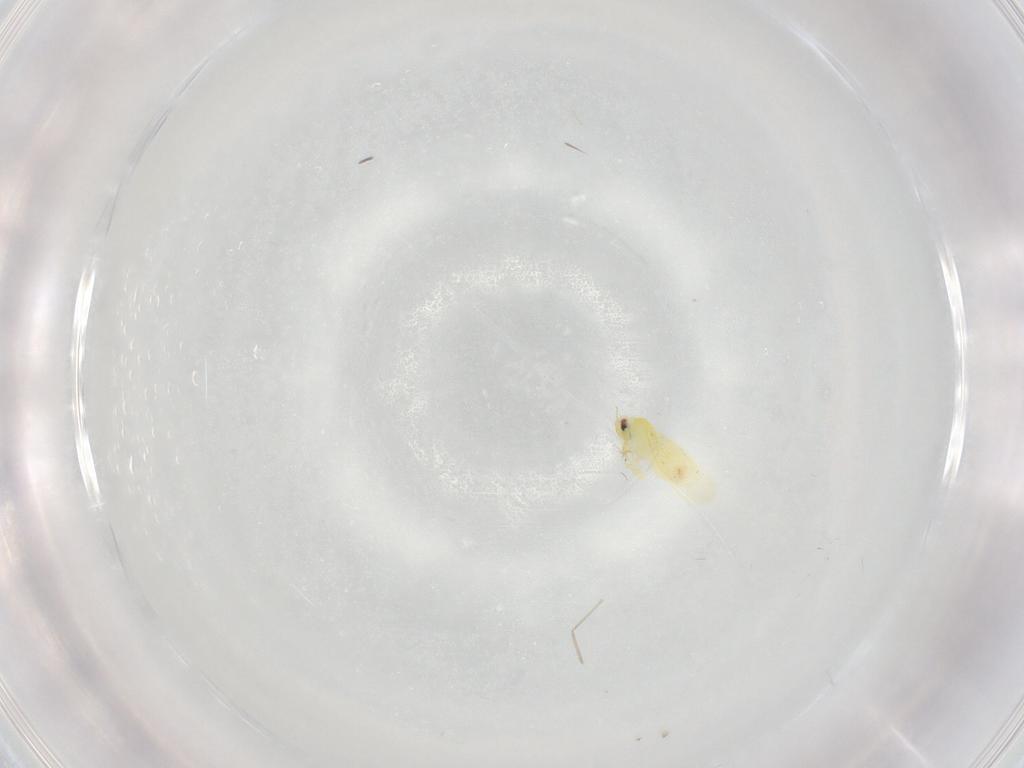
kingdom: Animalia
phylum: Arthropoda
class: Insecta
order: Hemiptera
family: Aleyrodidae
